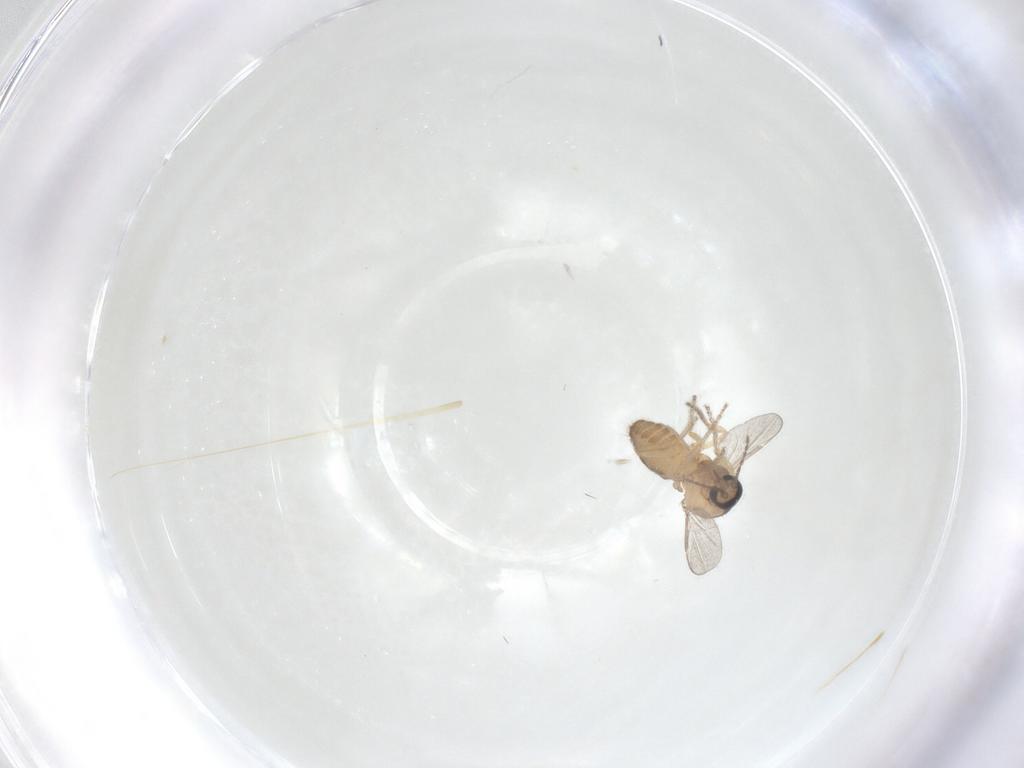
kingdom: Animalia
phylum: Arthropoda
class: Insecta
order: Diptera
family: Ceratopogonidae
